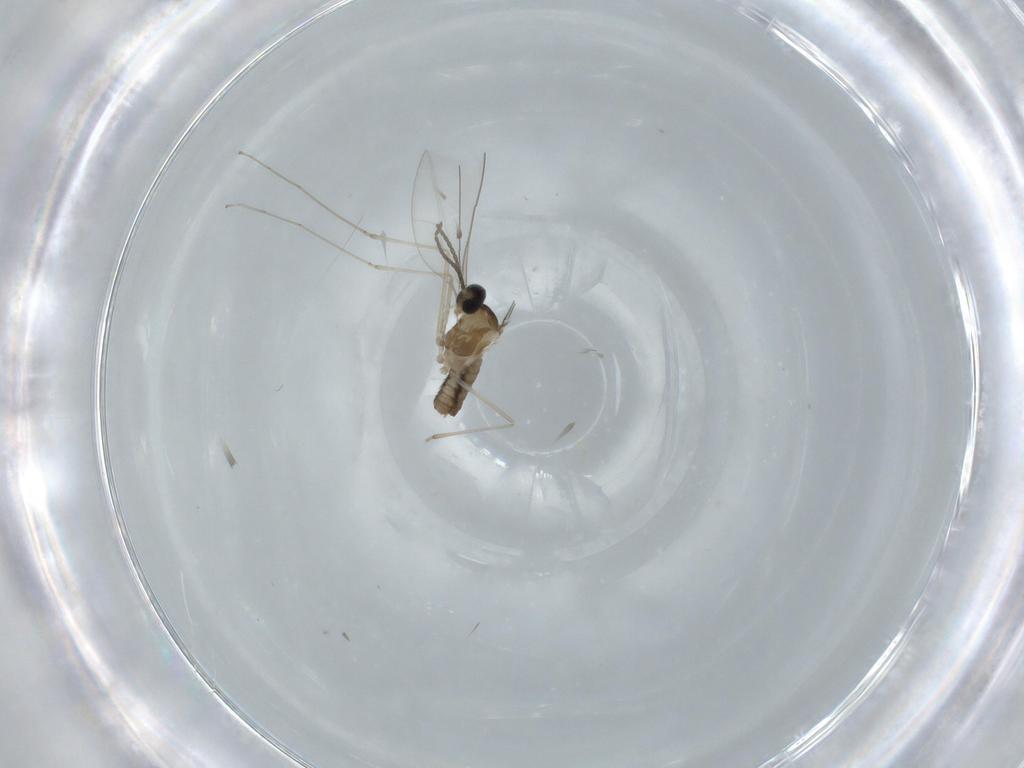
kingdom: Animalia
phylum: Arthropoda
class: Insecta
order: Diptera
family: Cecidomyiidae
